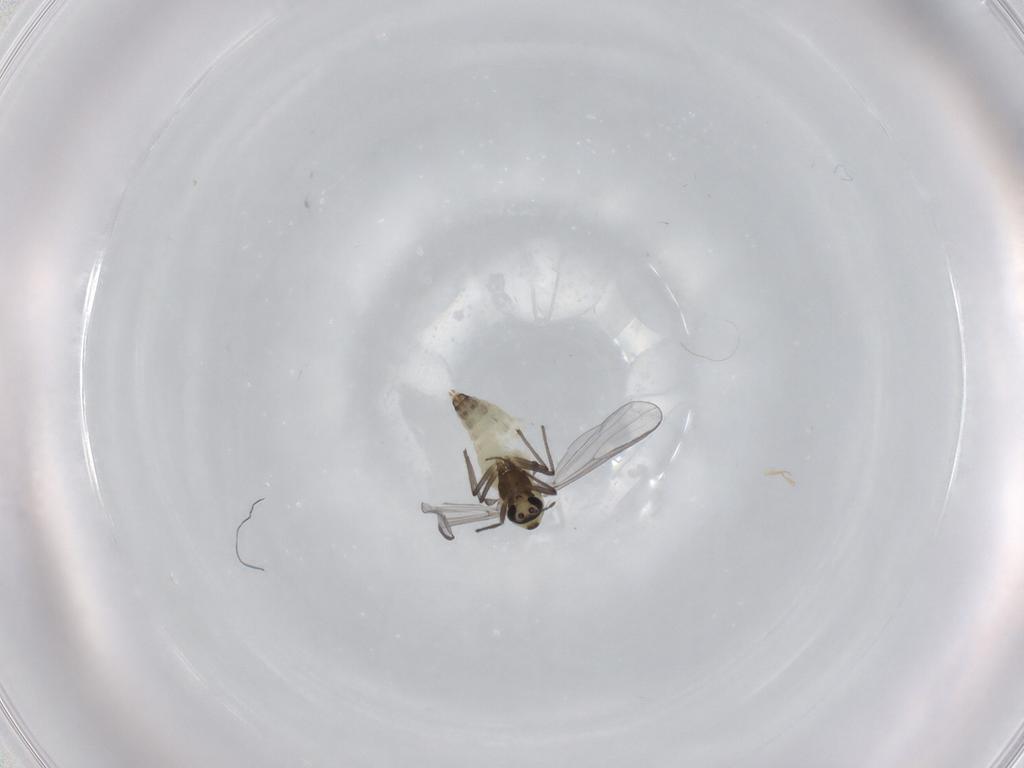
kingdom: Animalia
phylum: Arthropoda
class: Insecta
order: Diptera
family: Chironomidae
